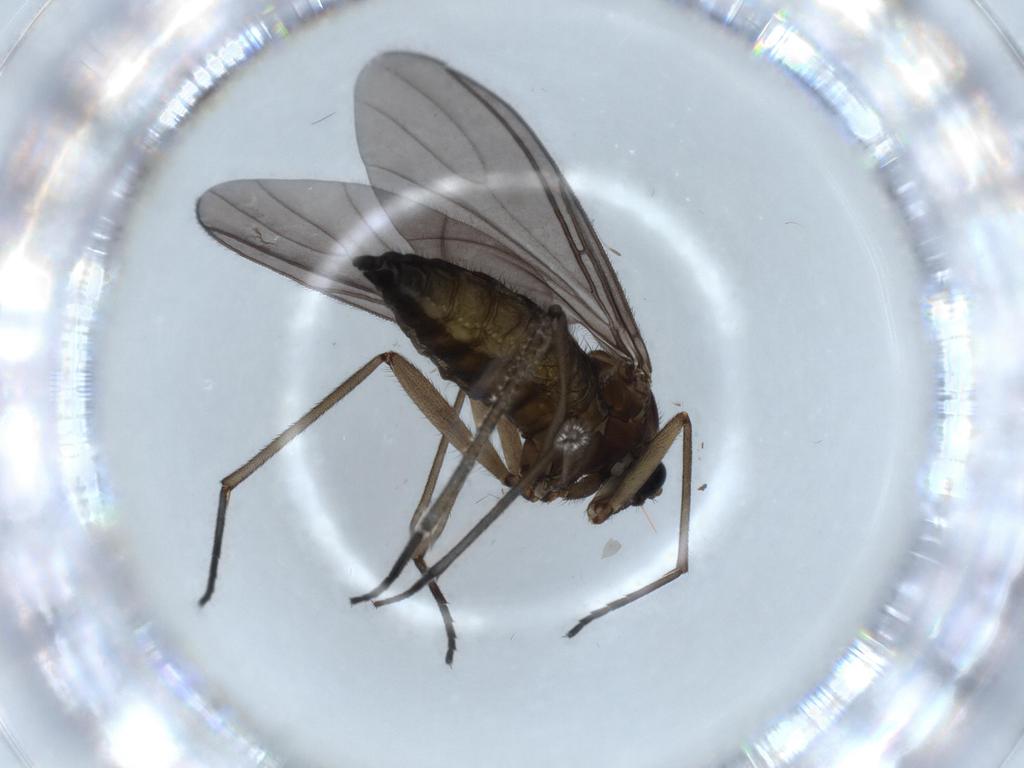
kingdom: Animalia
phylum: Arthropoda
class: Insecta
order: Diptera
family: Sciaridae
